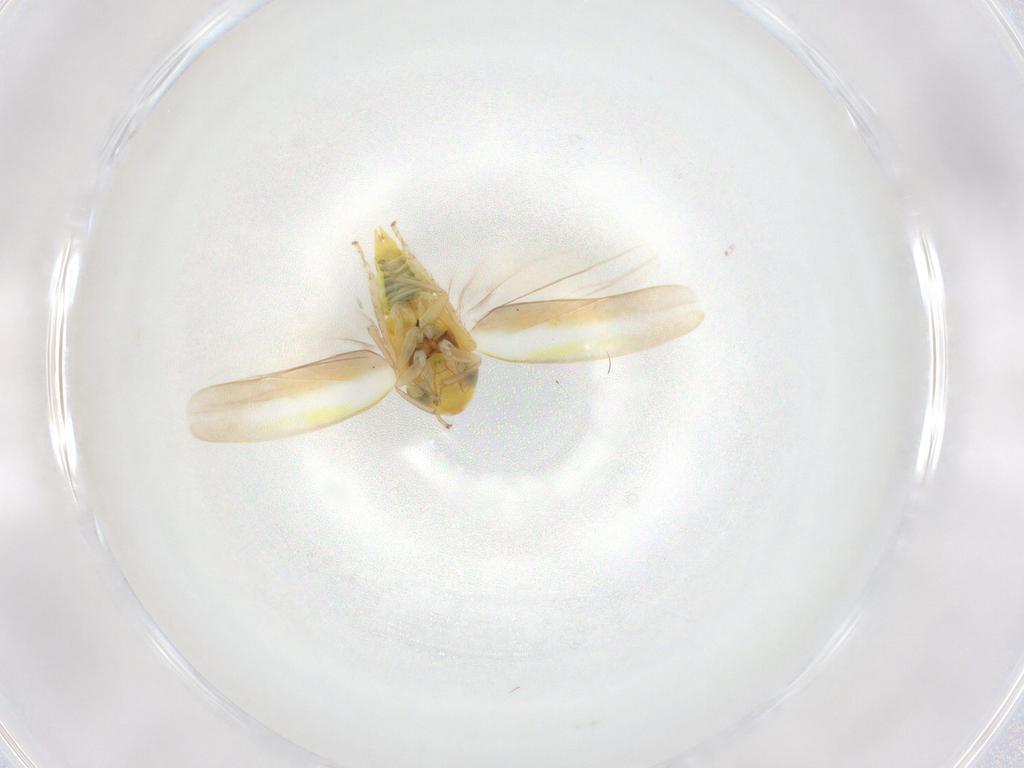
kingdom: Animalia
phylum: Arthropoda
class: Insecta
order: Hemiptera
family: Cicadellidae
